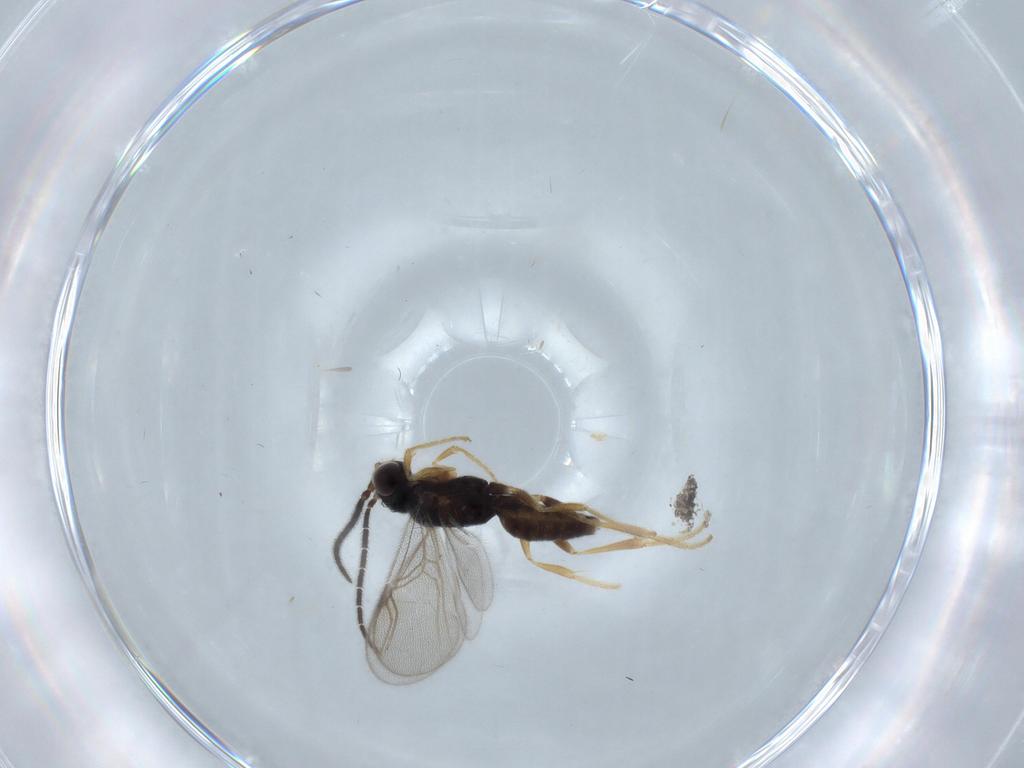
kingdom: Animalia
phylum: Arthropoda
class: Insecta
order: Hymenoptera
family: Dryinidae
